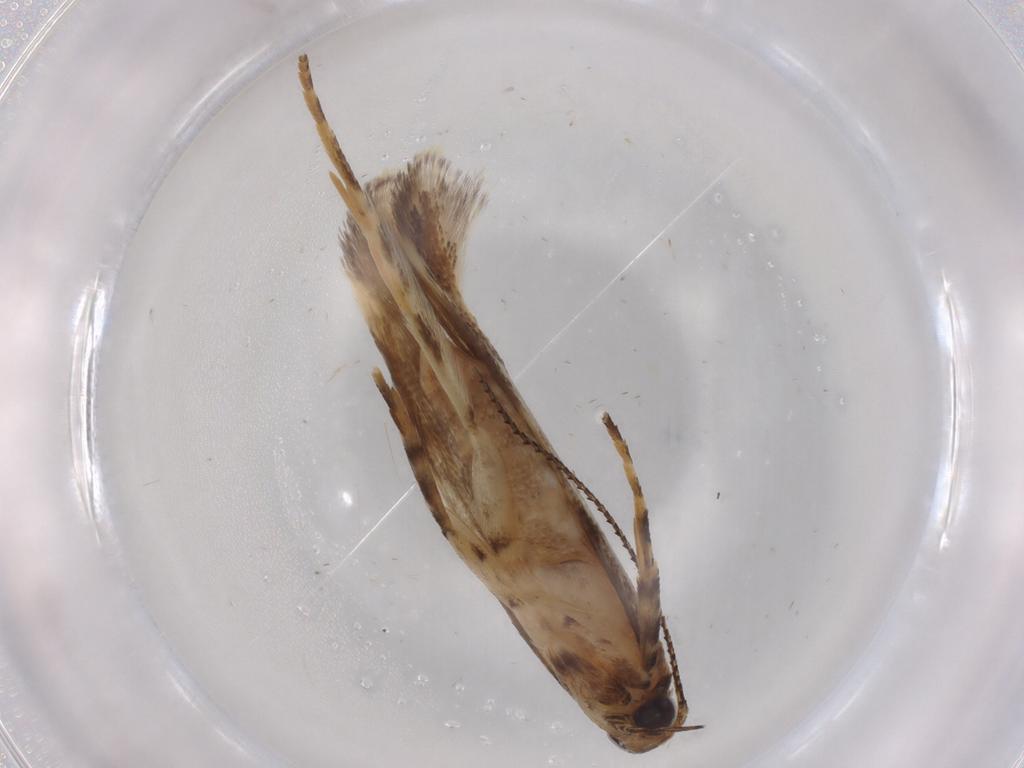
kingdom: Animalia
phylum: Arthropoda
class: Insecta
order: Lepidoptera
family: Gelechiidae
